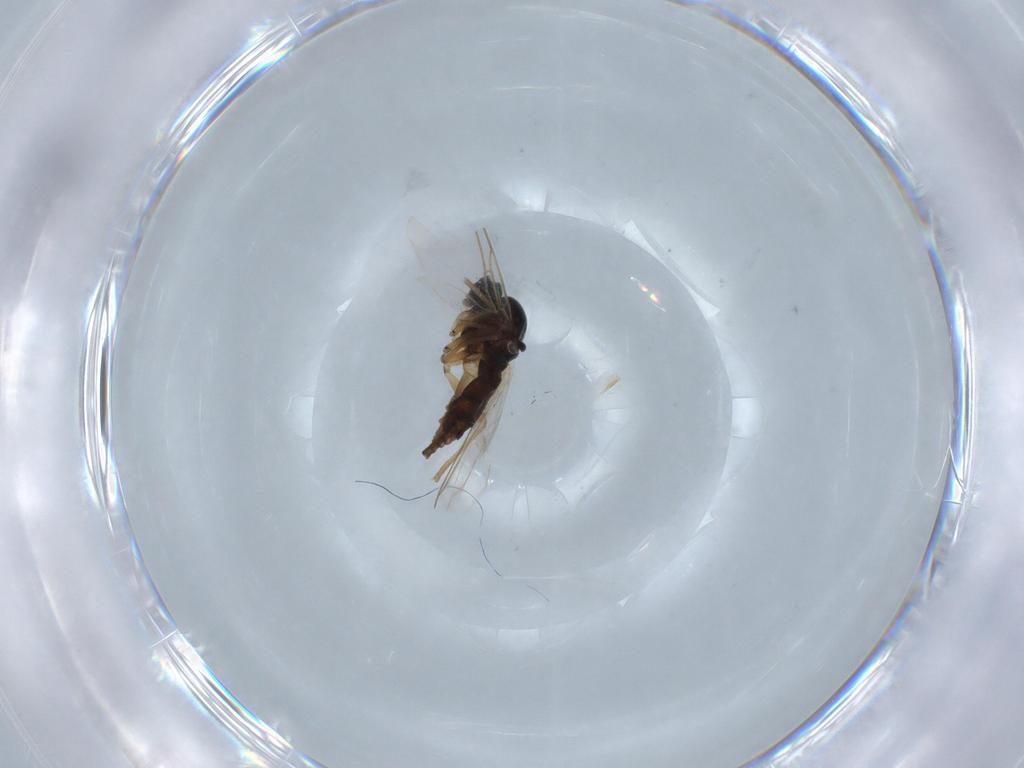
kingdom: Animalia
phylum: Arthropoda
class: Insecta
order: Diptera
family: Sciaridae
